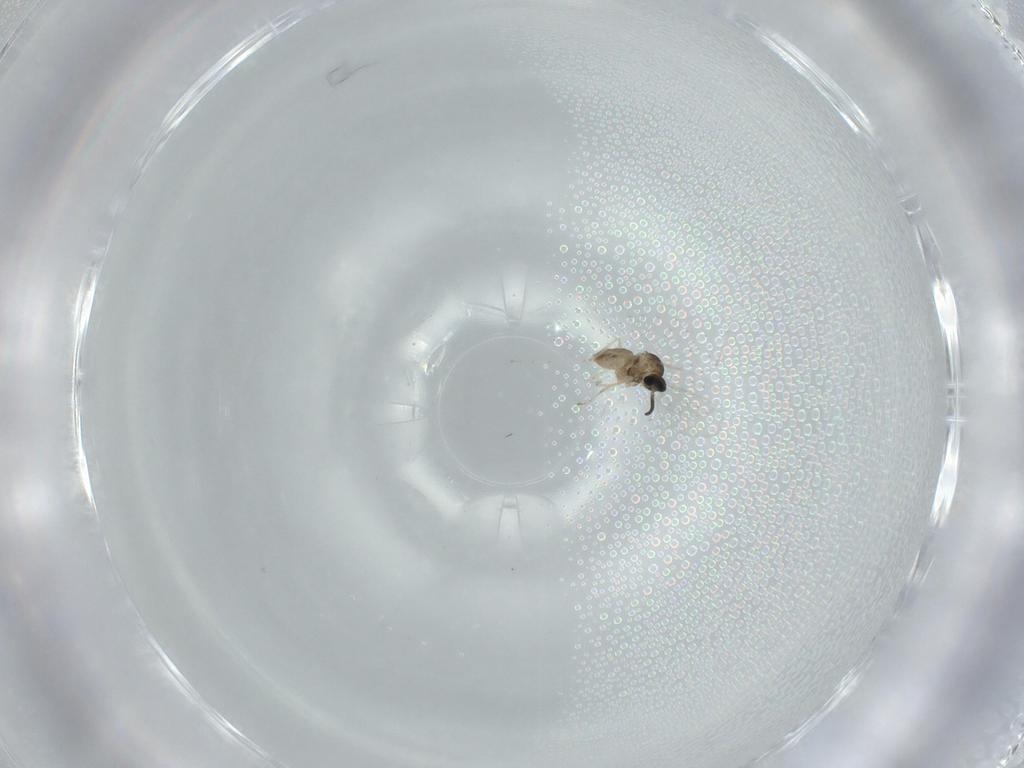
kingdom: Animalia
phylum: Arthropoda
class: Insecta
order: Diptera
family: Cecidomyiidae
